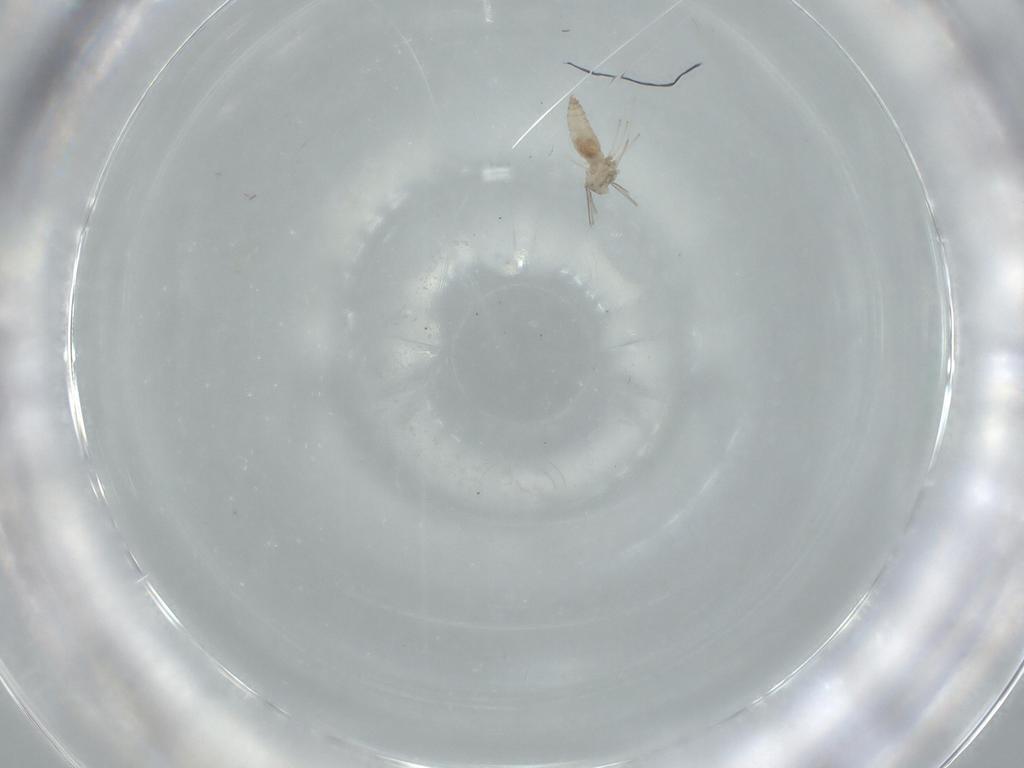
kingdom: Animalia
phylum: Arthropoda
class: Insecta
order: Diptera
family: Cecidomyiidae
